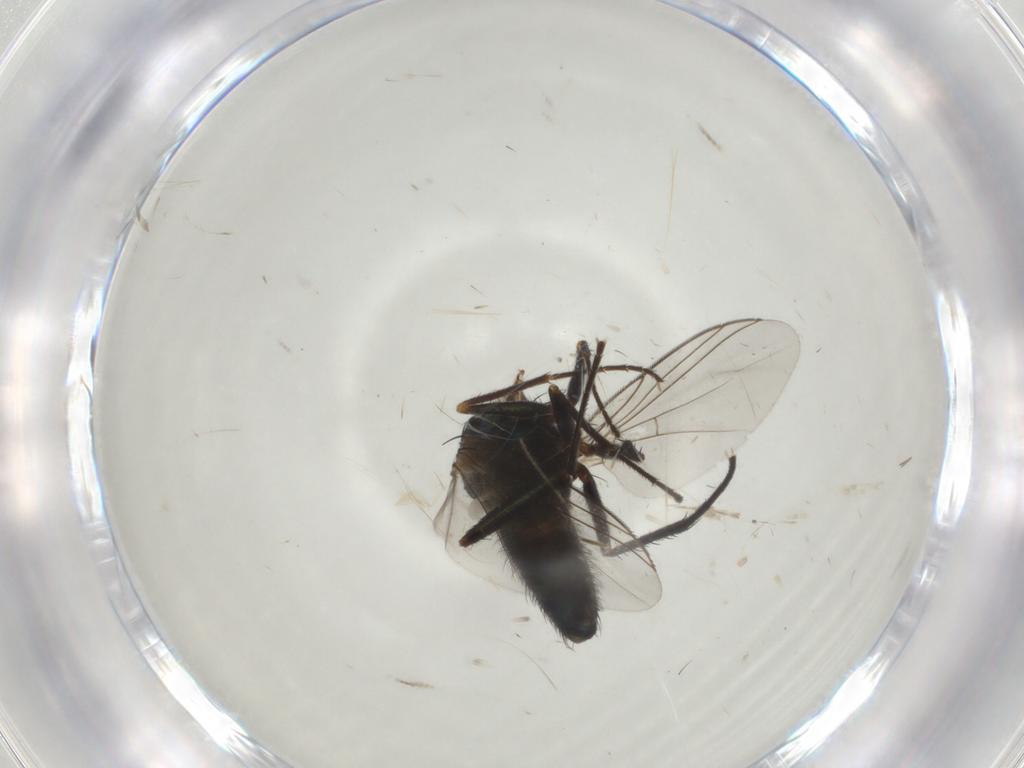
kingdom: Animalia
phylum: Arthropoda
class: Insecta
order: Diptera
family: Dolichopodidae
